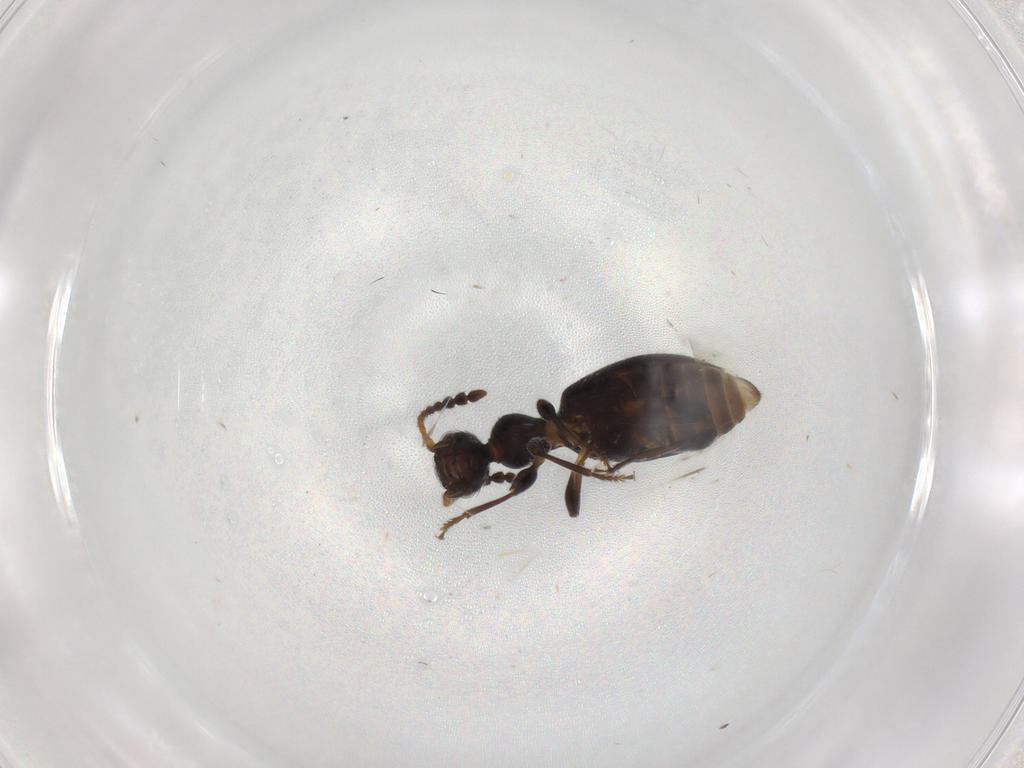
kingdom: Animalia
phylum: Arthropoda
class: Insecta
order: Coleoptera
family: Anthicidae
